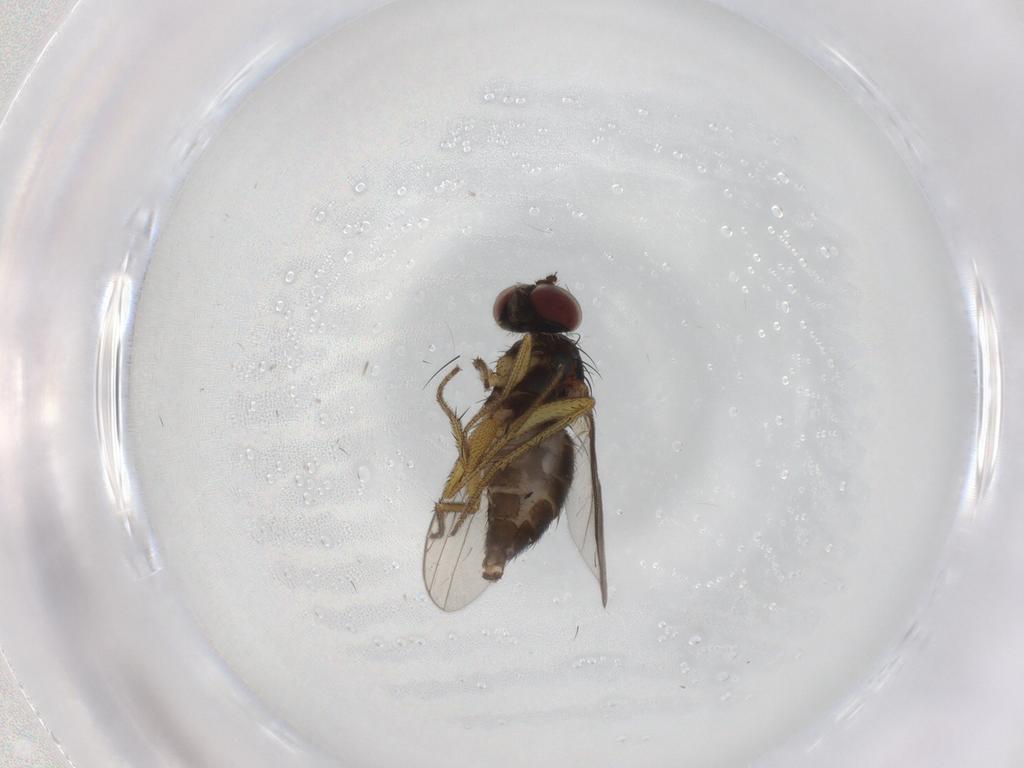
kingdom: Animalia
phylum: Arthropoda
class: Insecta
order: Diptera
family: Dolichopodidae
